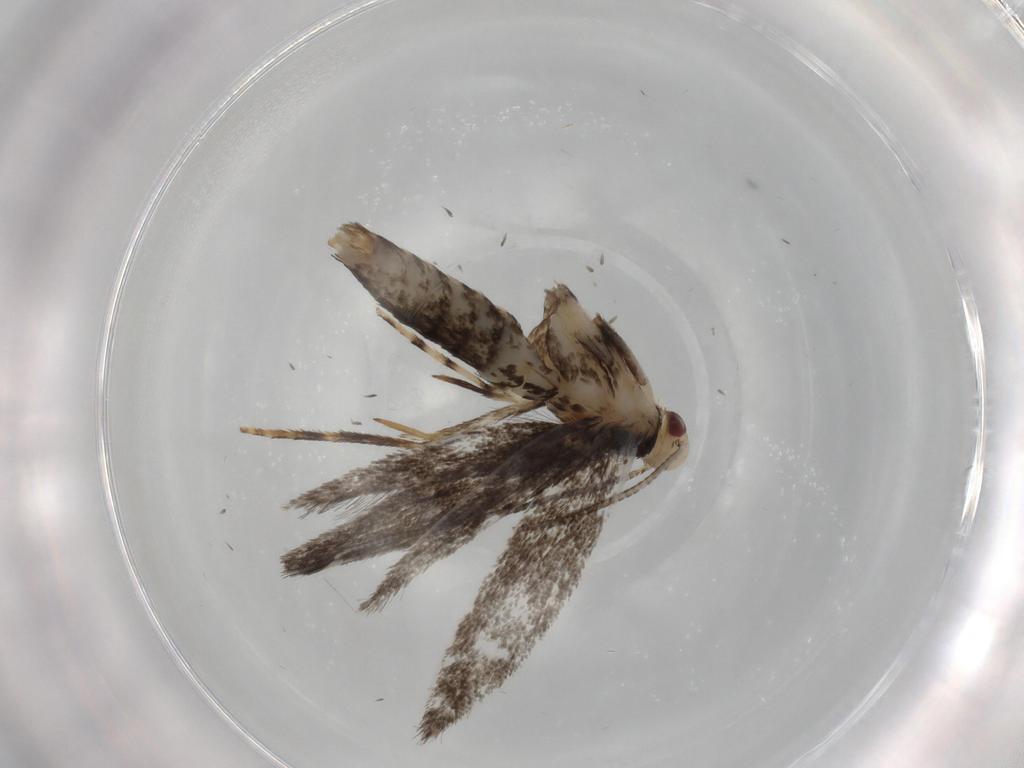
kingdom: Animalia
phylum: Arthropoda
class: Insecta
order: Lepidoptera
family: Gracillariidae
